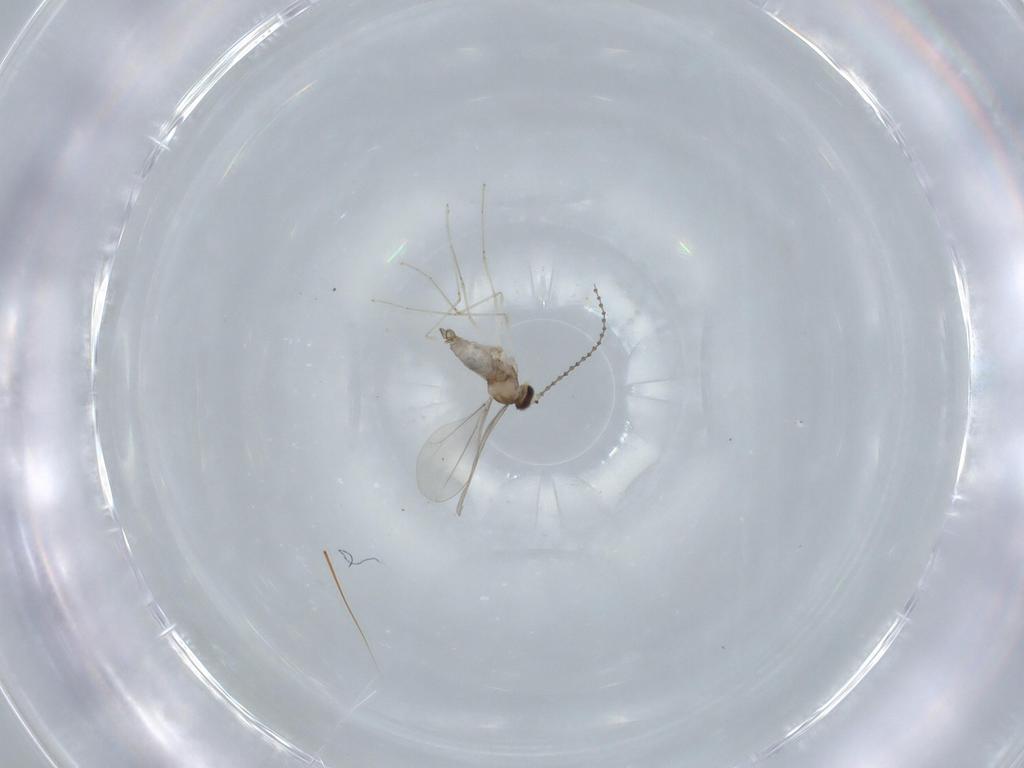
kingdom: Animalia
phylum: Arthropoda
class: Insecta
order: Diptera
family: Cecidomyiidae
